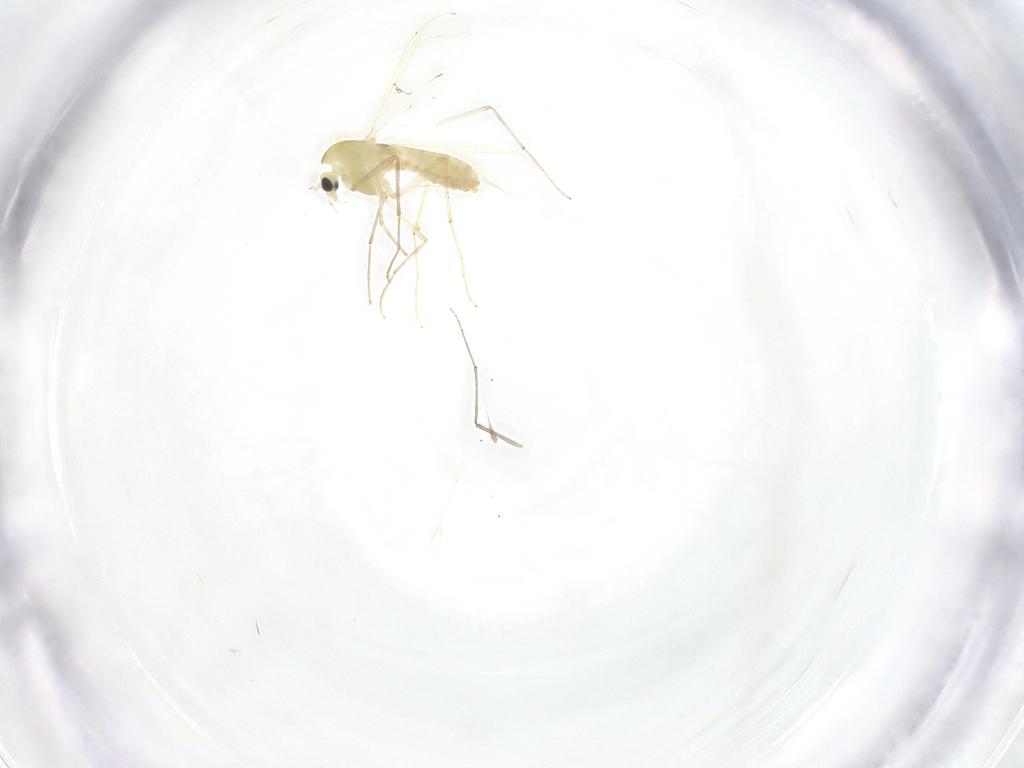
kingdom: Animalia
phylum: Arthropoda
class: Insecta
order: Diptera
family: Chironomidae
